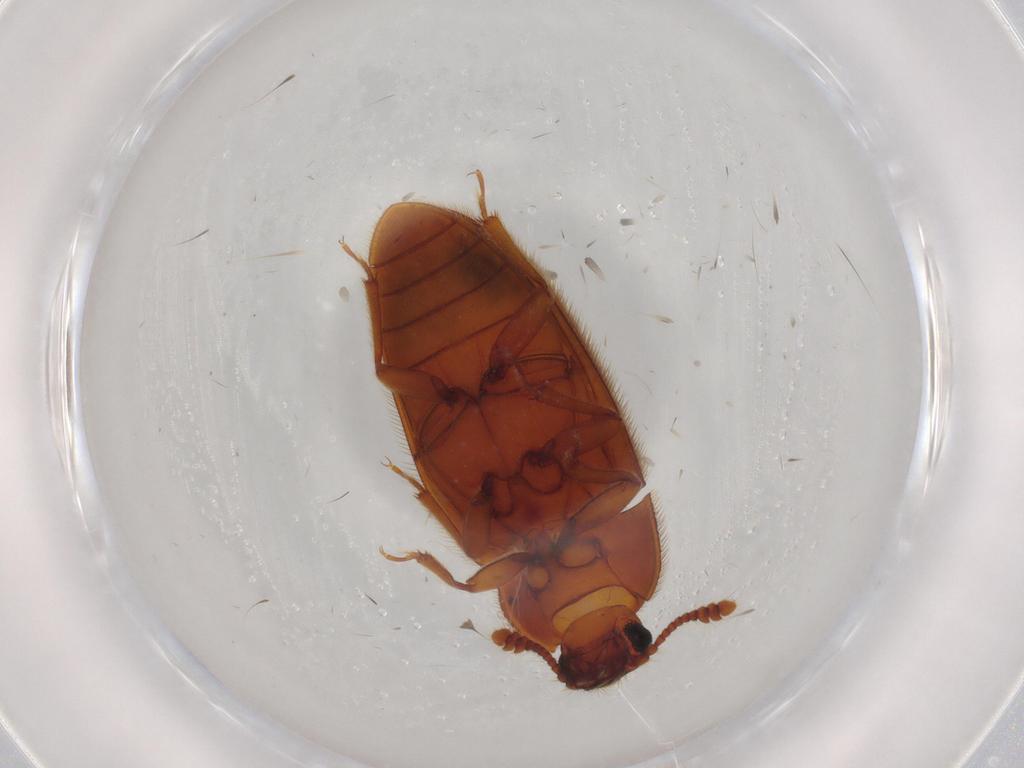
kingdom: Animalia
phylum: Arthropoda
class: Insecta
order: Coleoptera
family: Biphyllidae
